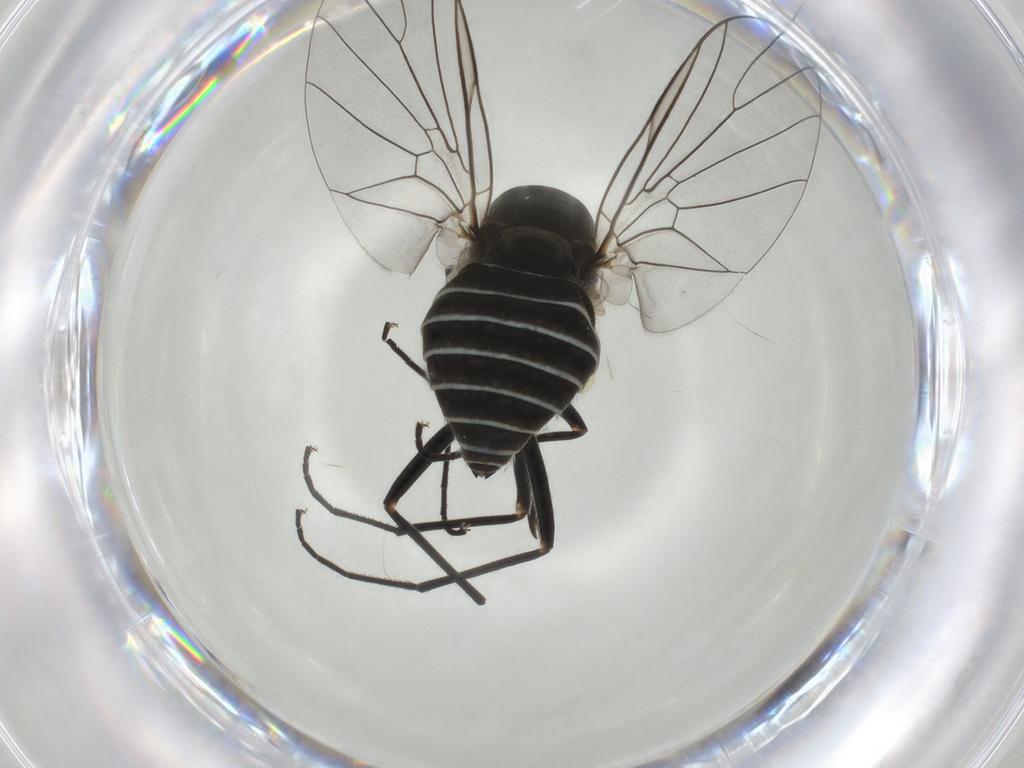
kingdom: Animalia
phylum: Arthropoda
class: Insecta
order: Diptera
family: Bombyliidae
